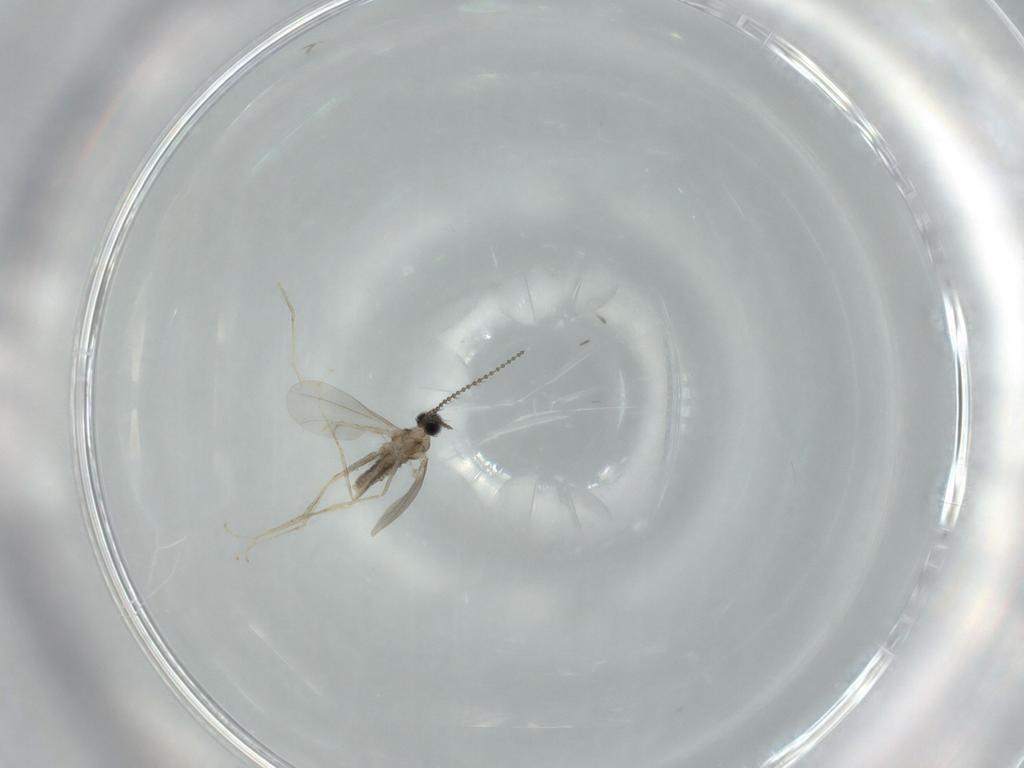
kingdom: Animalia
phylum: Arthropoda
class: Insecta
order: Diptera
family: Cecidomyiidae
